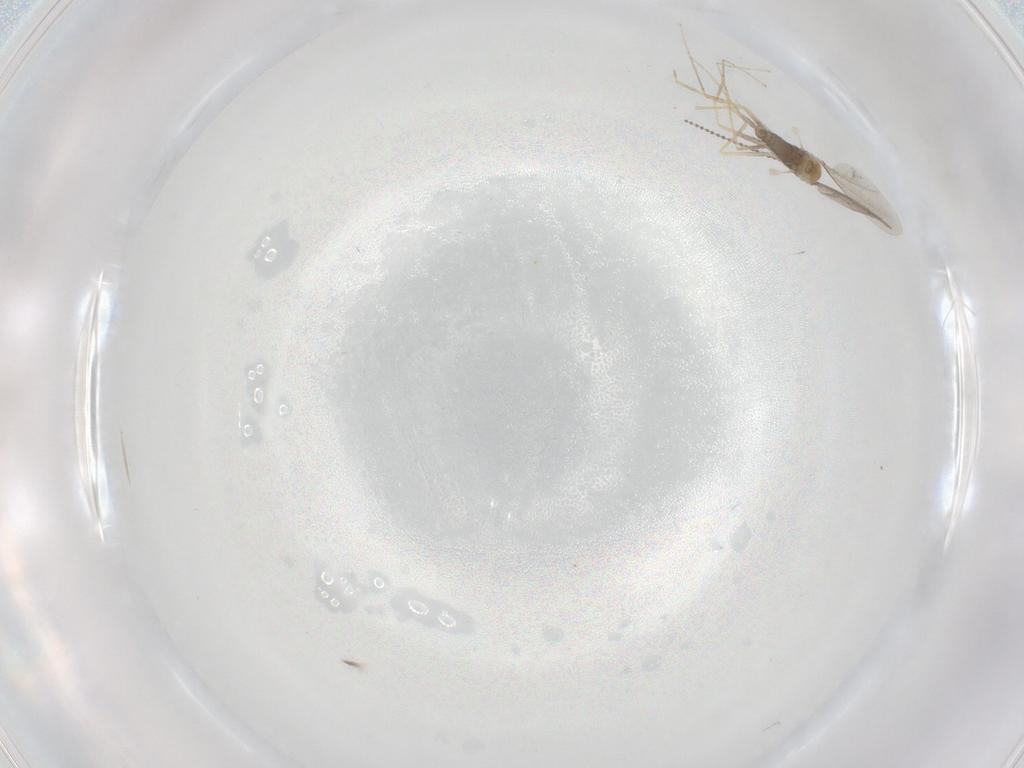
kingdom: Animalia
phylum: Arthropoda
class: Insecta
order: Diptera
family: Cecidomyiidae
